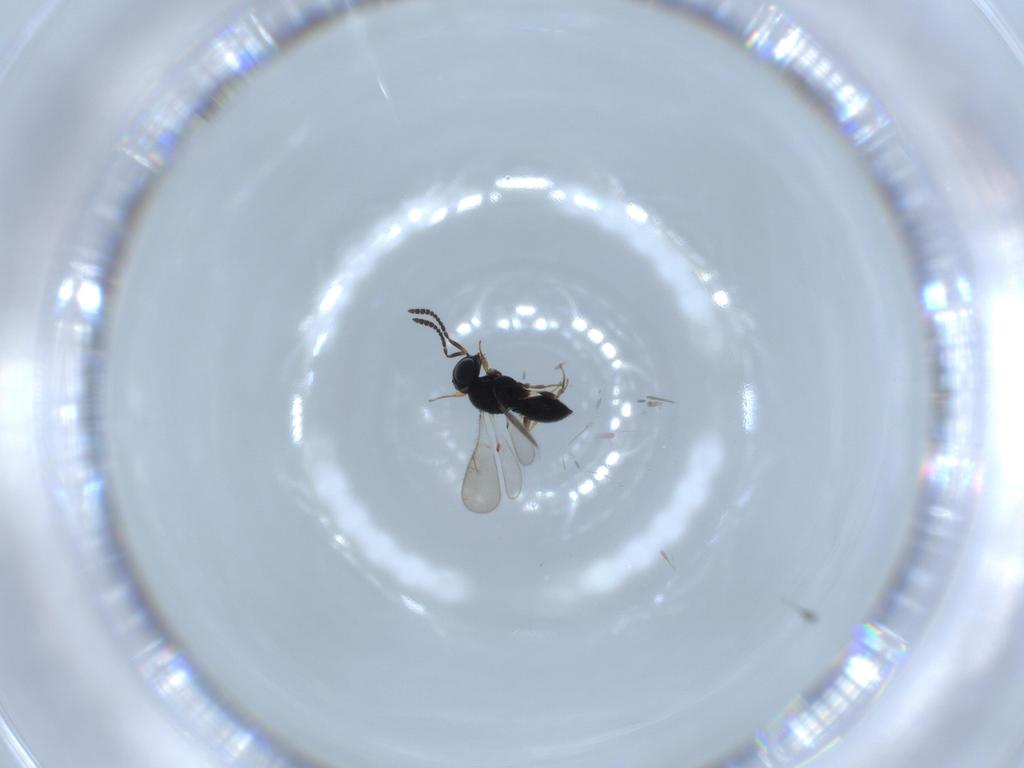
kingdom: Animalia
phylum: Arthropoda
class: Insecta
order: Hymenoptera
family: Scelionidae
